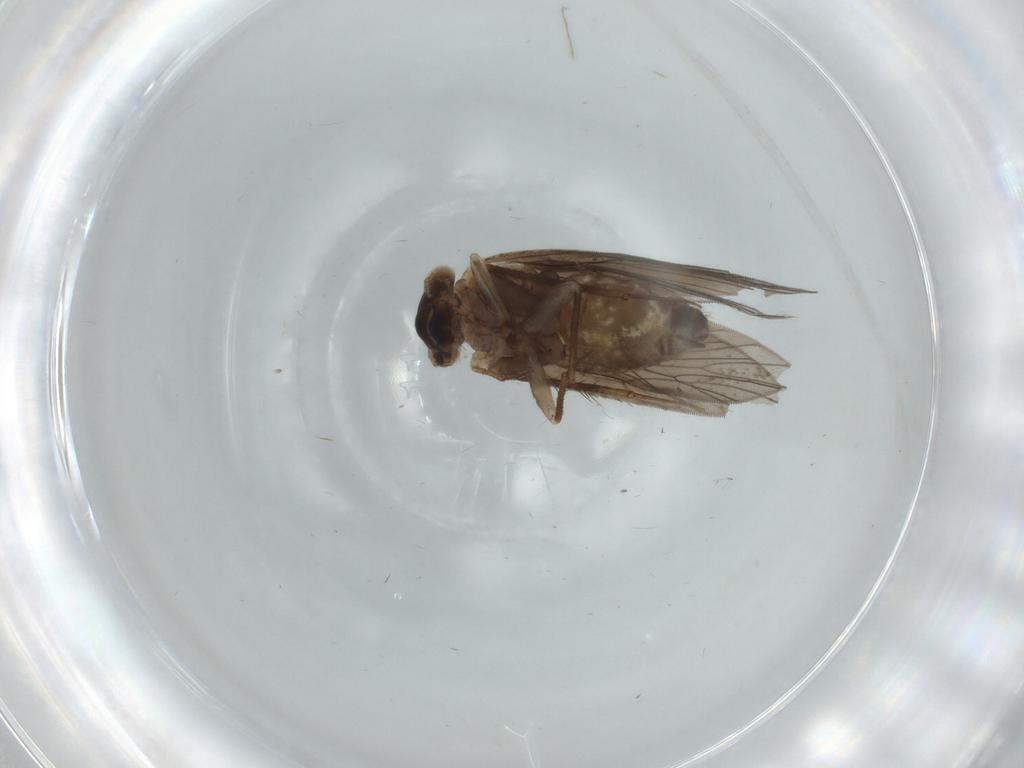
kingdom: Animalia
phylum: Arthropoda
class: Insecta
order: Psocodea
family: Lepidopsocidae
